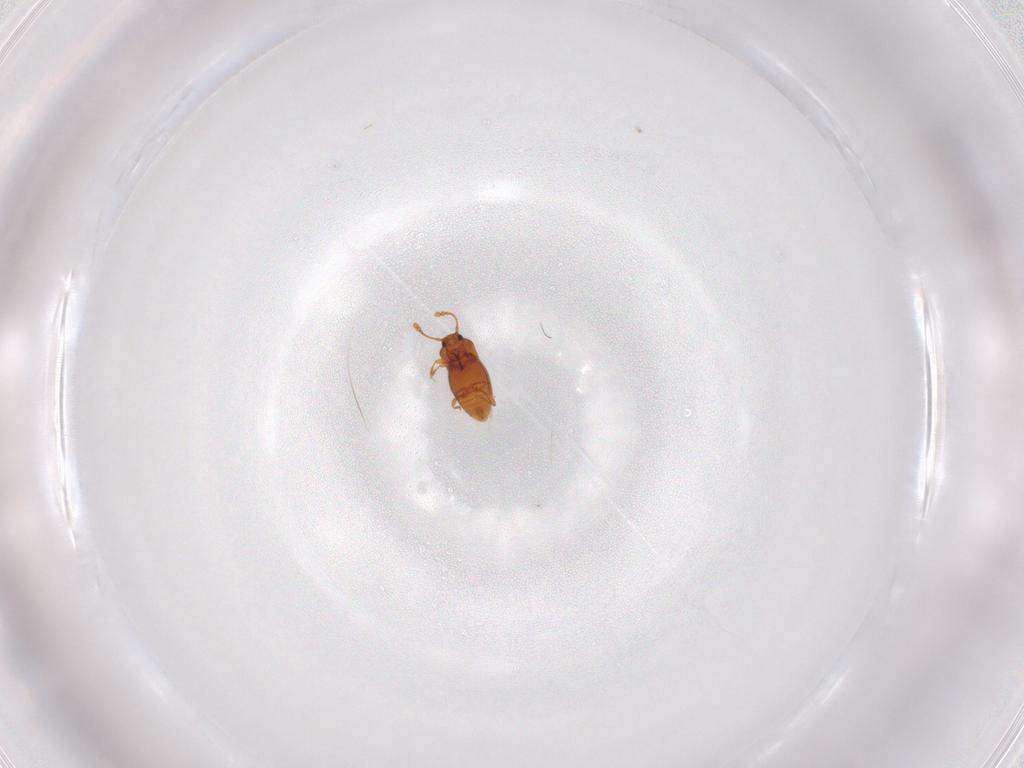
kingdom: Animalia
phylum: Arthropoda
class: Insecta
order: Coleoptera
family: Staphylinidae
